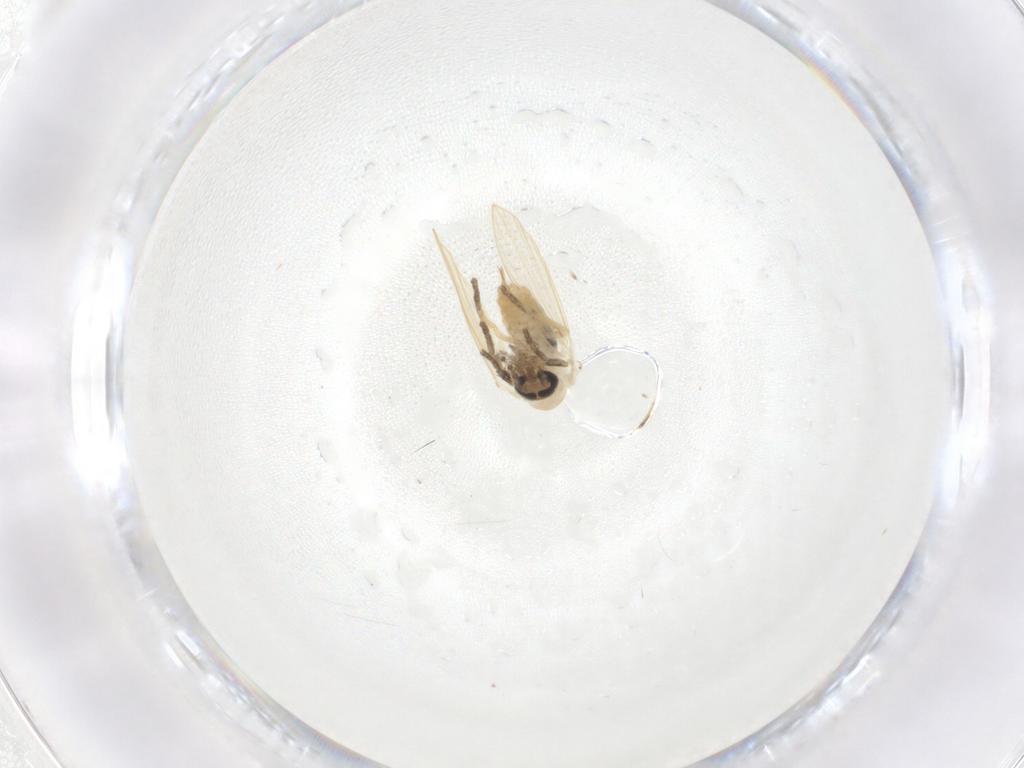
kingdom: Animalia
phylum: Arthropoda
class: Insecta
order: Diptera
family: Psychodidae
